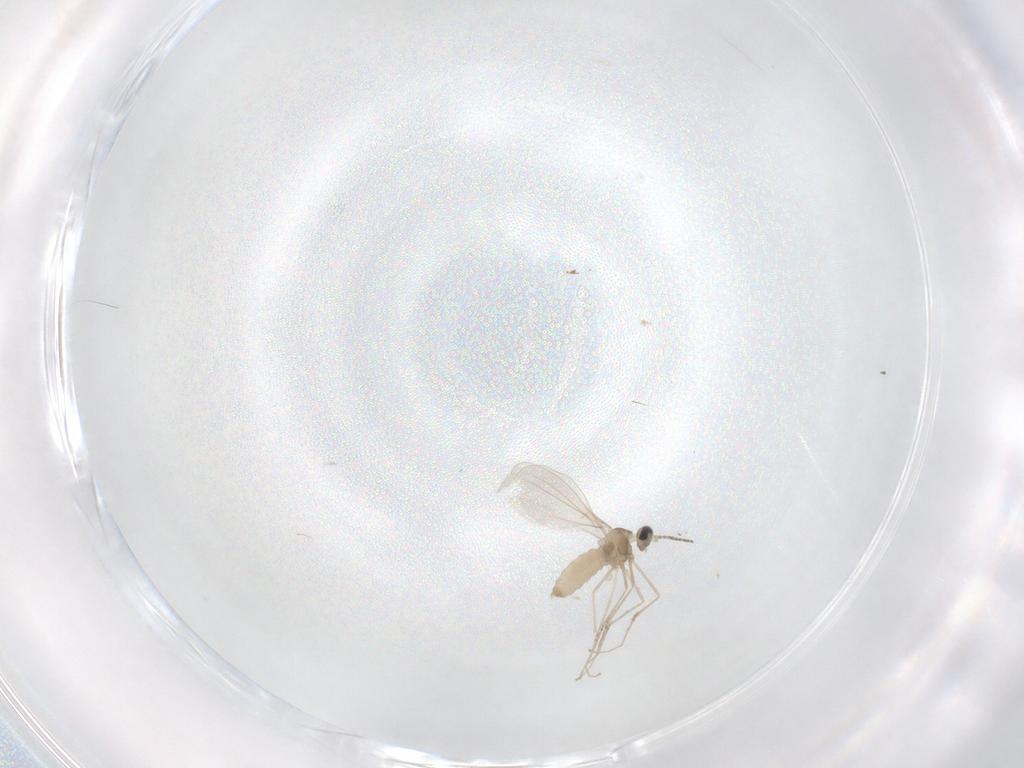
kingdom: Animalia
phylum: Arthropoda
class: Insecta
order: Diptera
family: Cecidomyiidae
